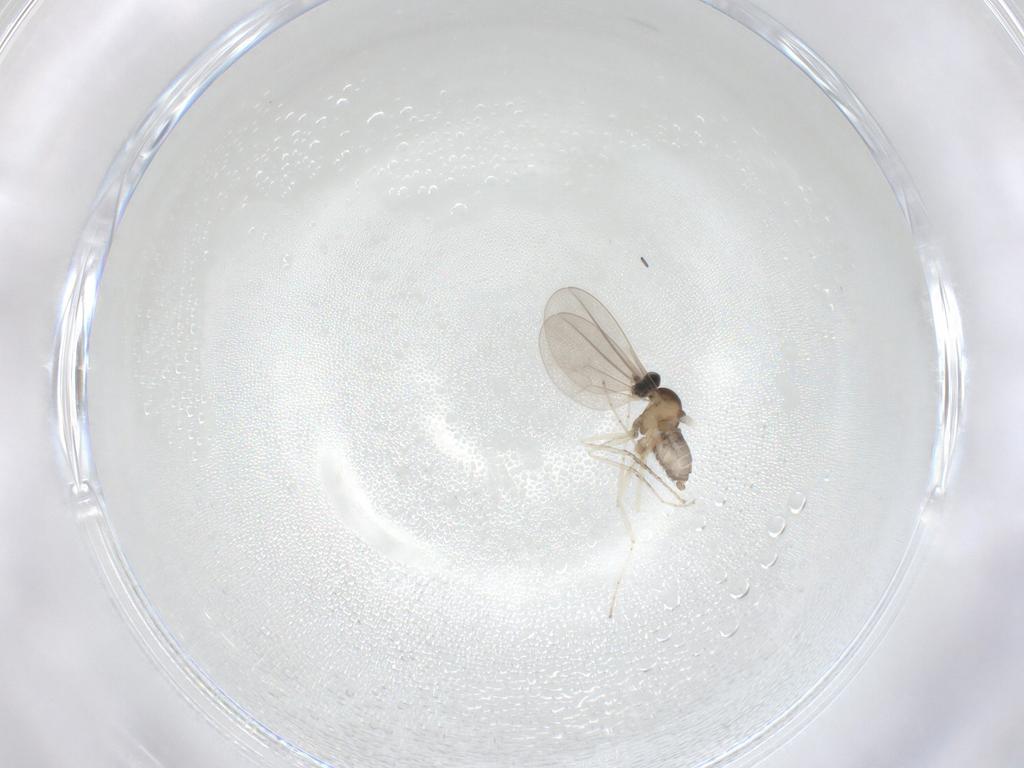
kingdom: Animalia
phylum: Arthropoda
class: Insecta
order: Diptera
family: Cecidomyiidae
